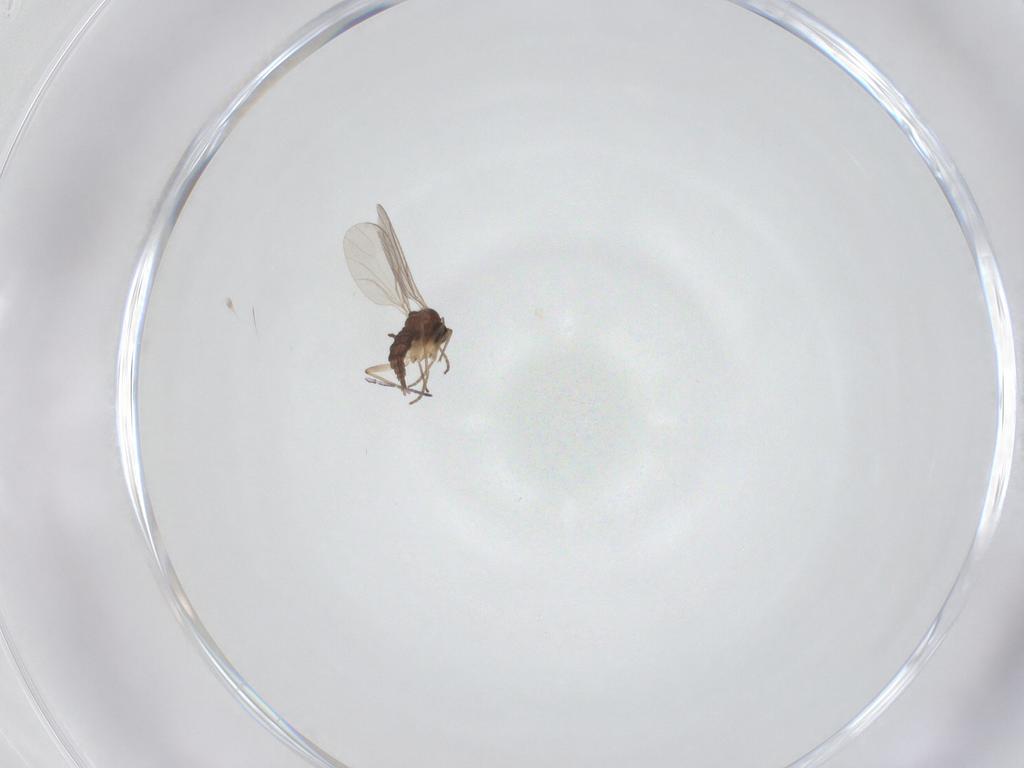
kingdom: Animalia
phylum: Arthropoda
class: Insecta
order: Diptera
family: Sciaridae
